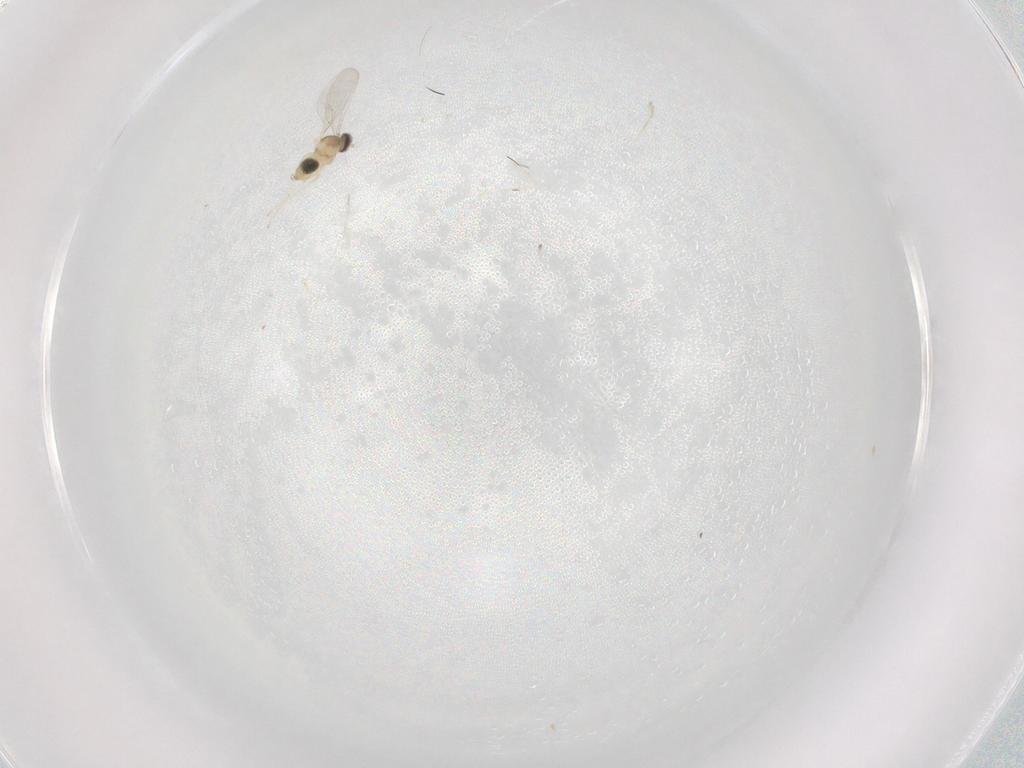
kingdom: Animalia
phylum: Arthropoda
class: Insecta
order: Diptera
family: Cecidomyiidae
